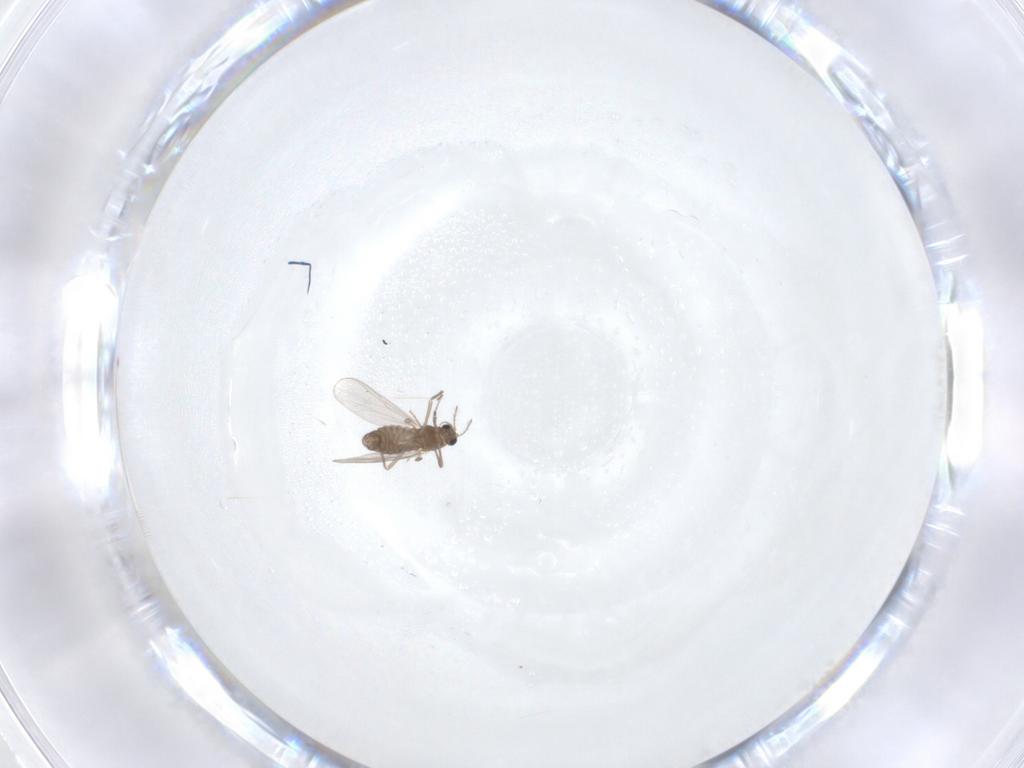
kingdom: Animalia
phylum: Arthropoda
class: Insecta
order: Diptera
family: Chironomidae
